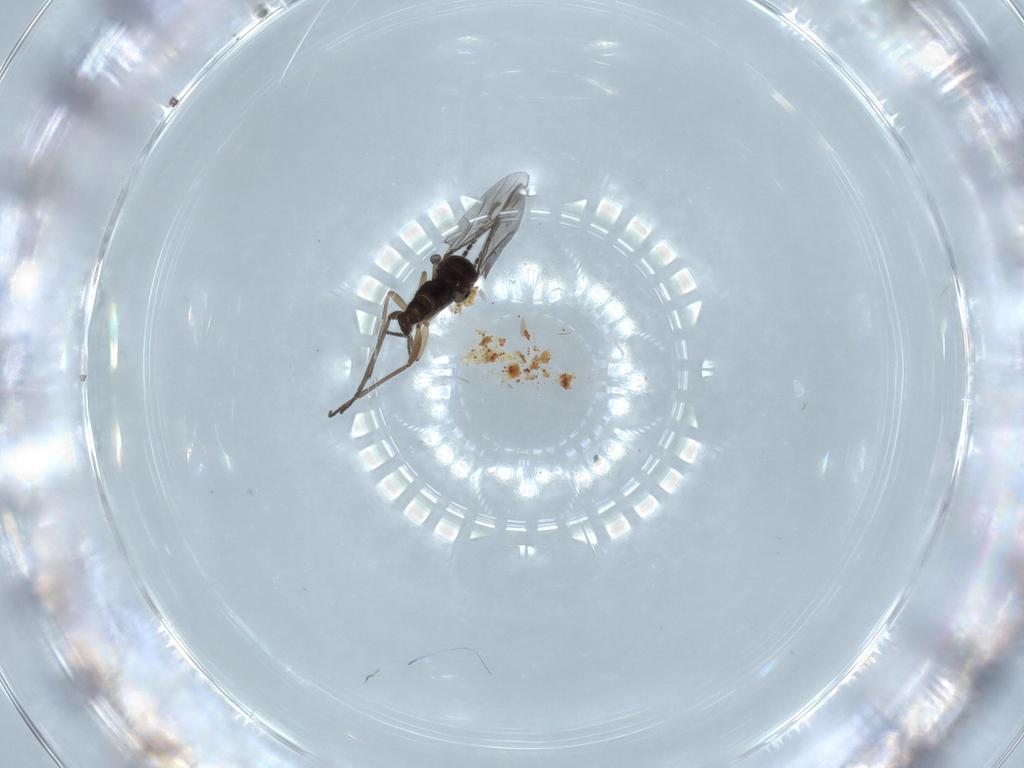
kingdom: Animalia
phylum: Arthropoda
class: Insecta
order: Diptera
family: Sciaridae
